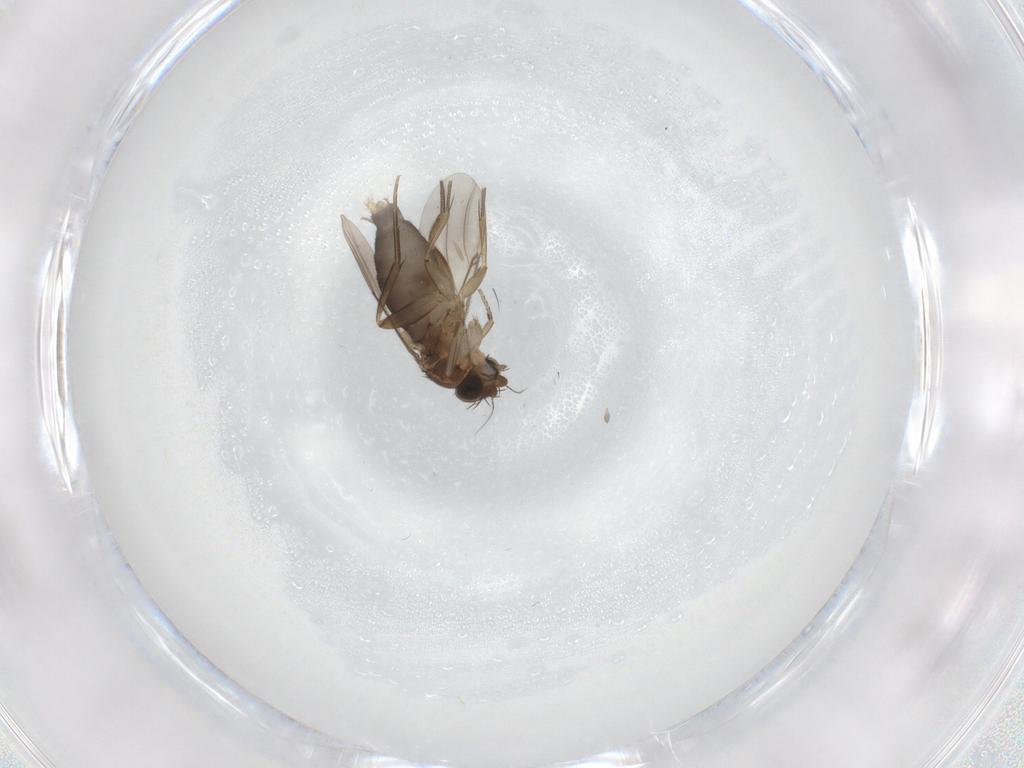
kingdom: Animalia
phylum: Arthropoda
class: Insecta
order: Diptera
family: Phoridae
